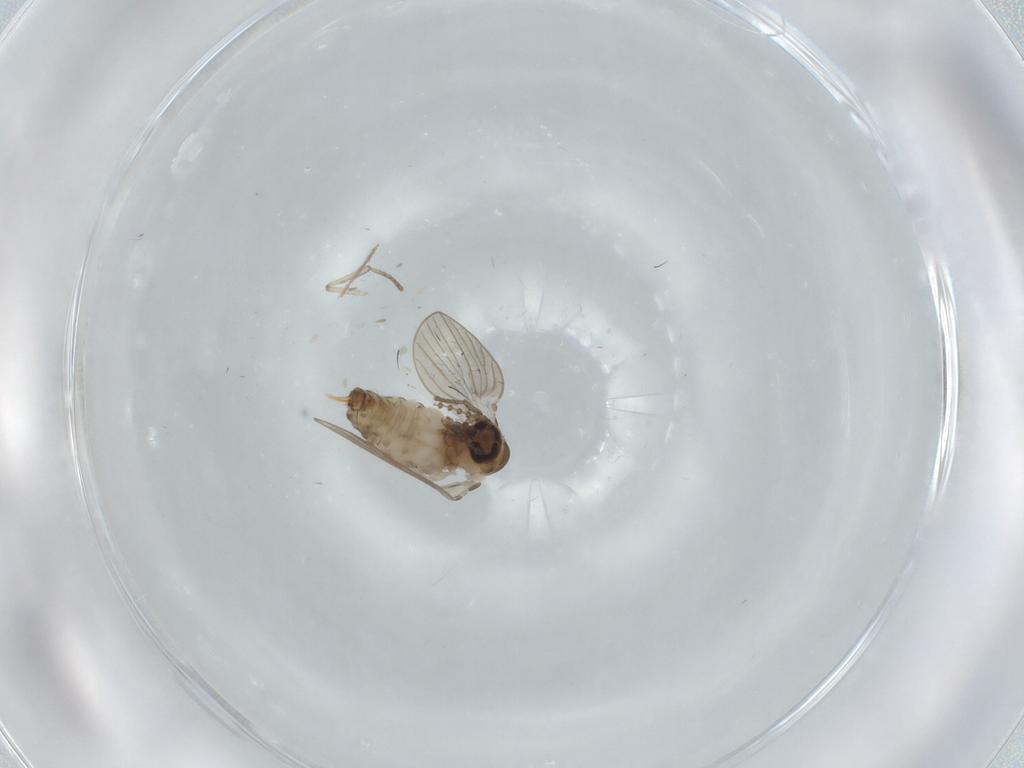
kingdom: Animalia
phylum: Arthropoda
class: Insecta
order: Diptera
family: Psychodidae
